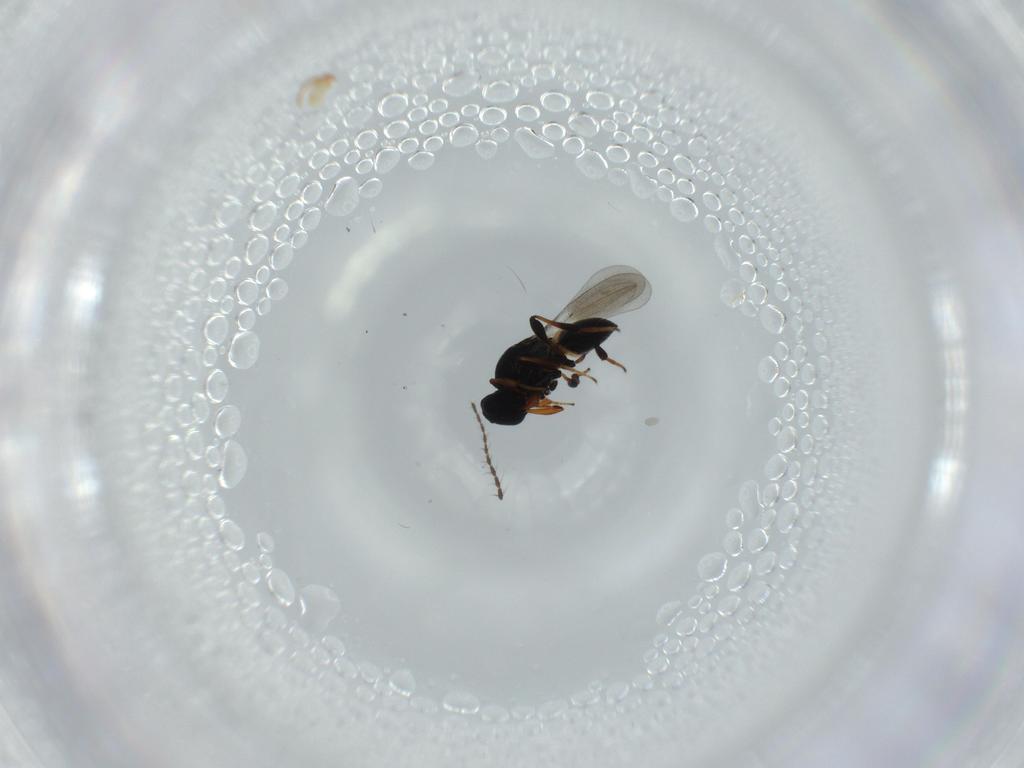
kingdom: Animalia
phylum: Arthropoda
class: Insecta
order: Hymenoptera
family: Platygastridae
